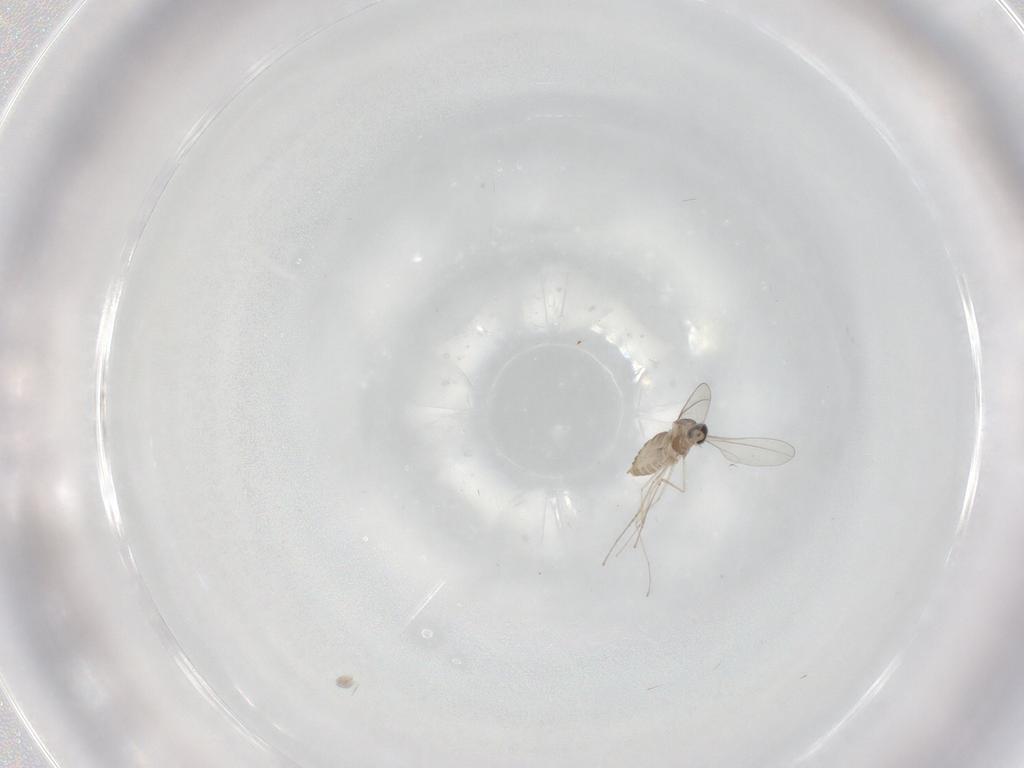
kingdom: Animalia
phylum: Arthropoda
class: Insecta
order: Diptera
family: Cecidomyiidae
